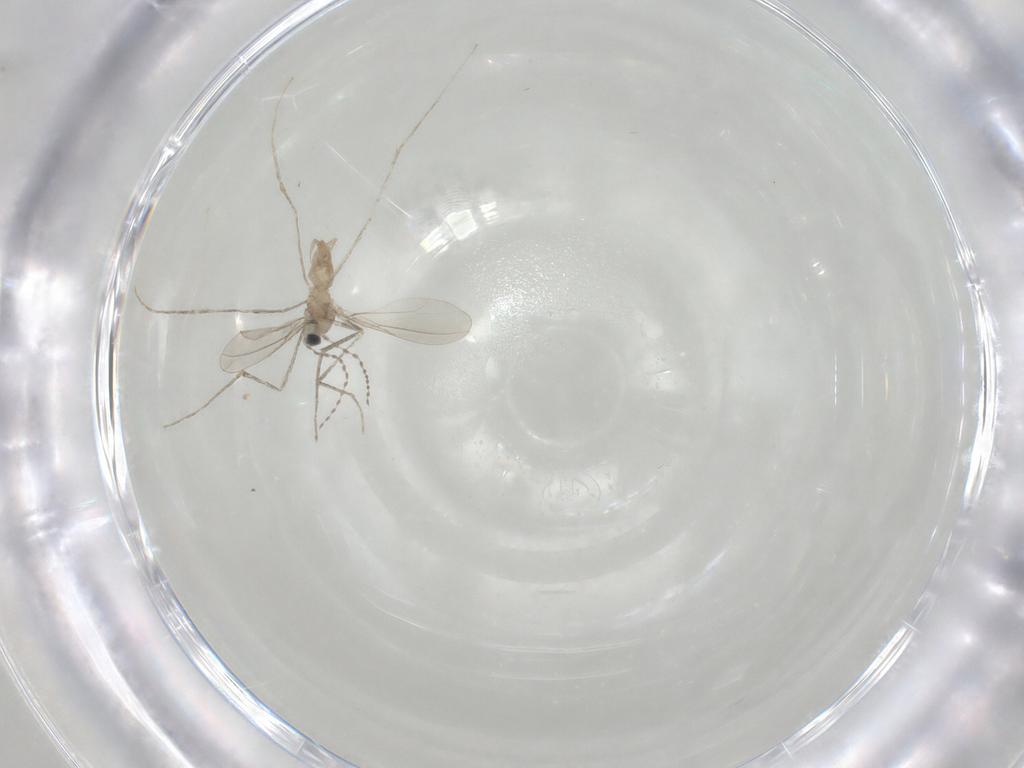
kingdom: Animalia
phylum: Arthropoda
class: Insecta
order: Diptera
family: Cecidomyiidae
